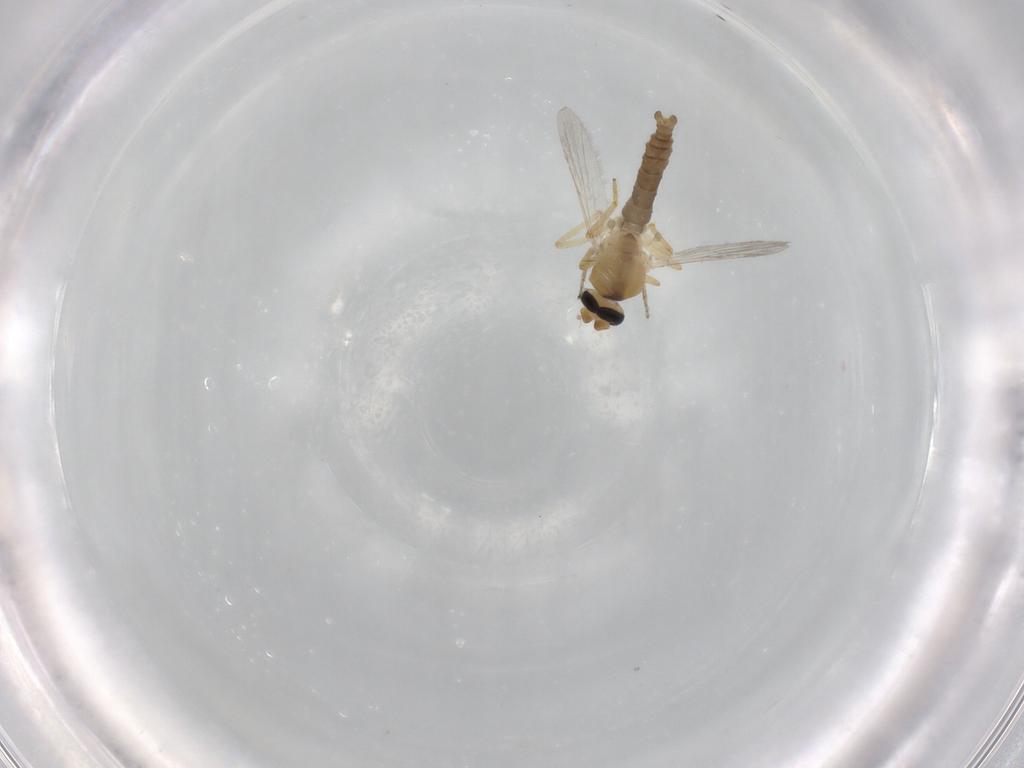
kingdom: Animalia
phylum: Arthropoda
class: Insecta
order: Diptera
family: Ceratopogonidae
